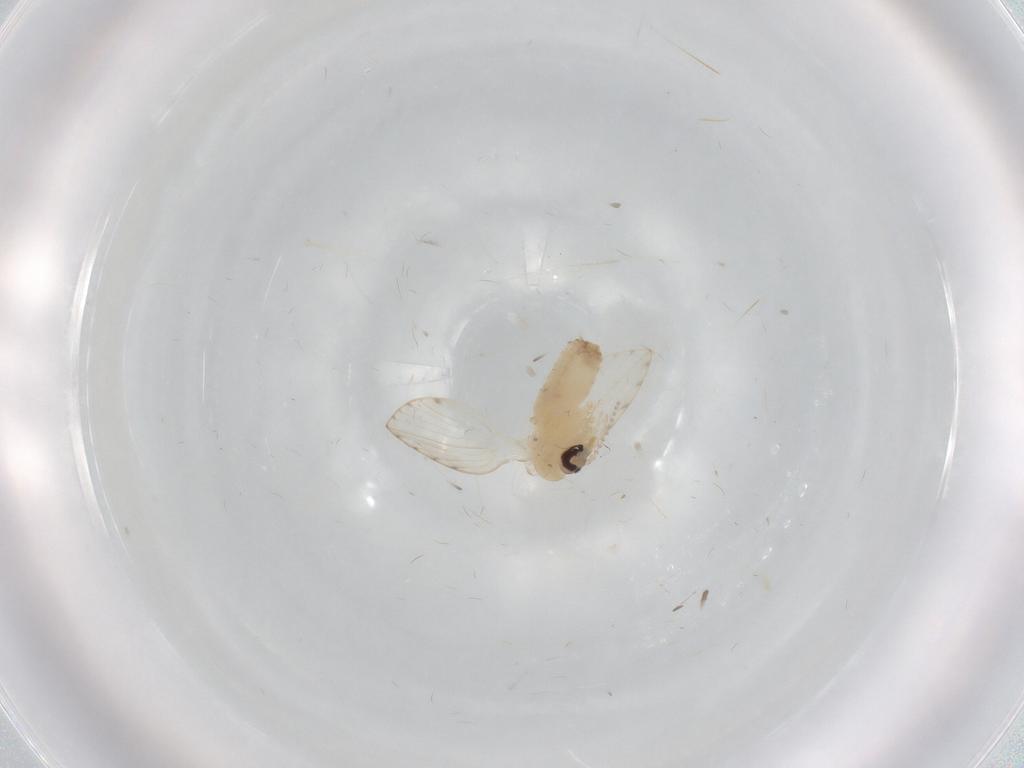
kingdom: Animalia
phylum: Arthropoda
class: Insecta
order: Diptera
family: Psychodidae
